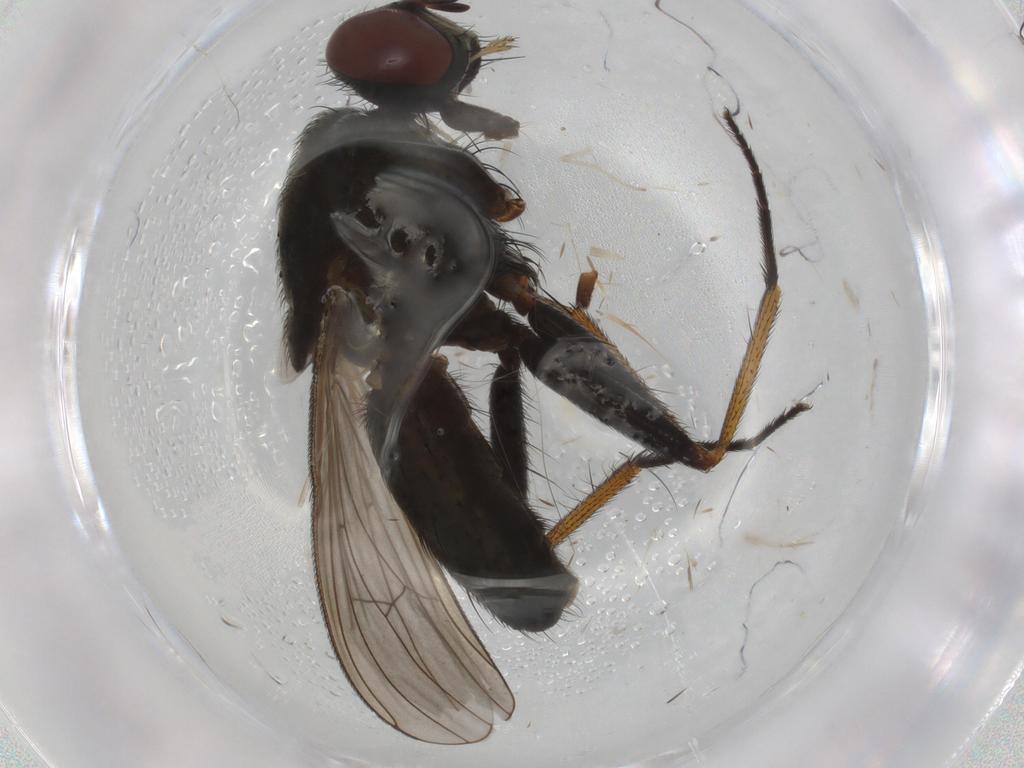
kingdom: Animalia
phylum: Arthropoda
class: Insecta
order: Diptera
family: Muscidae
